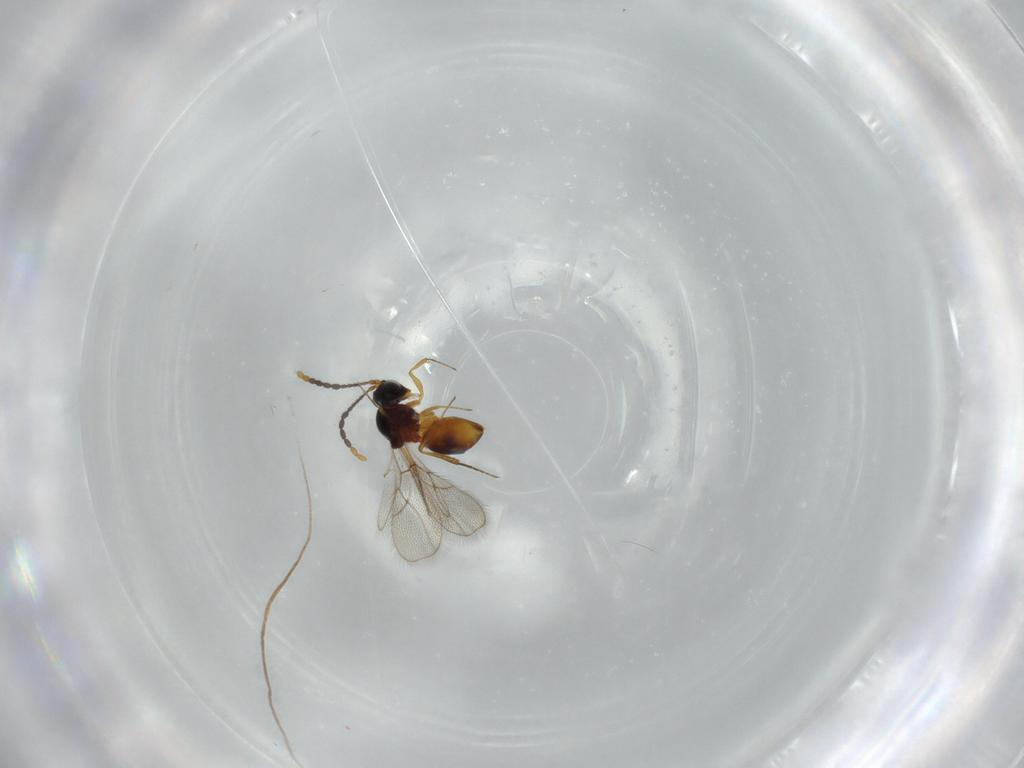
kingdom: Animalia
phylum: Arthropoda
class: Insecta
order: Hymenoptera
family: Figitidae
